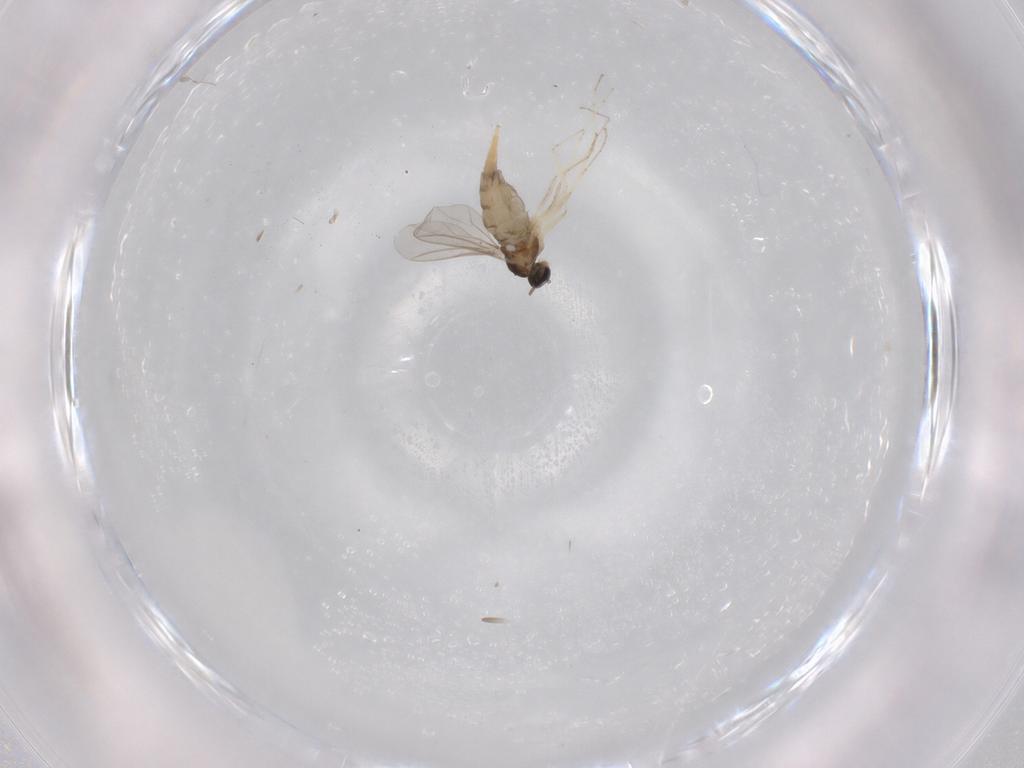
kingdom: Animalia
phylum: Arthropoda
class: Insecta
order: Diptera
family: Cecidomyiidae
